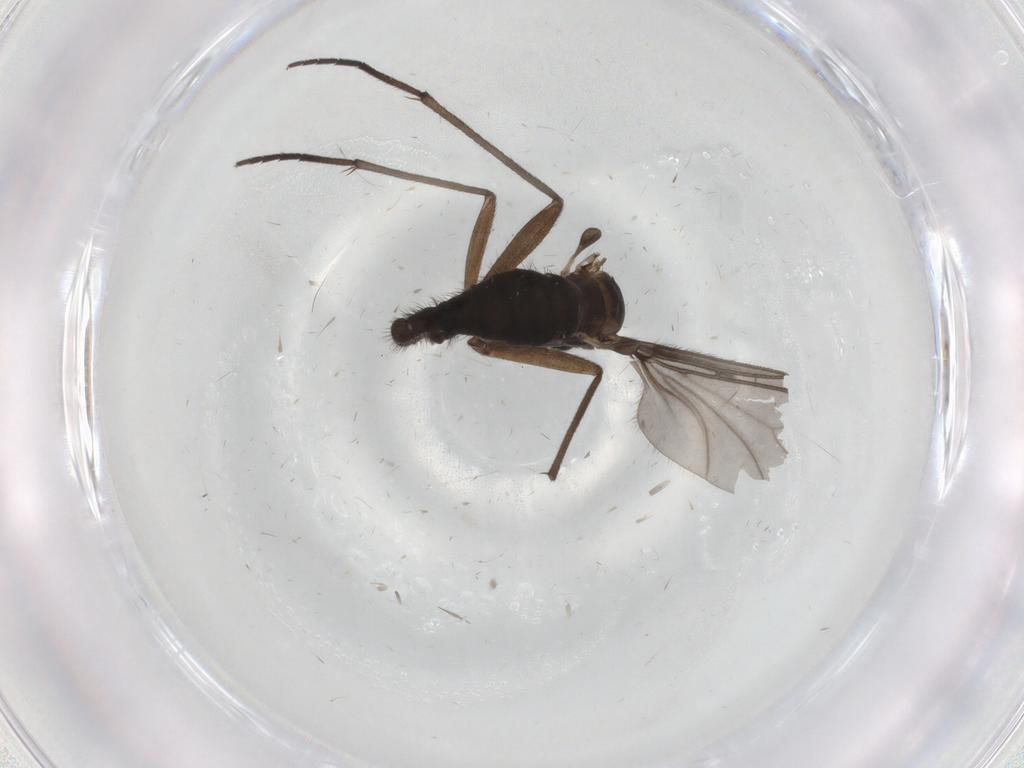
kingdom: Animalia
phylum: Arthropoda
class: Insecta
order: Diptera
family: Sciaridae
